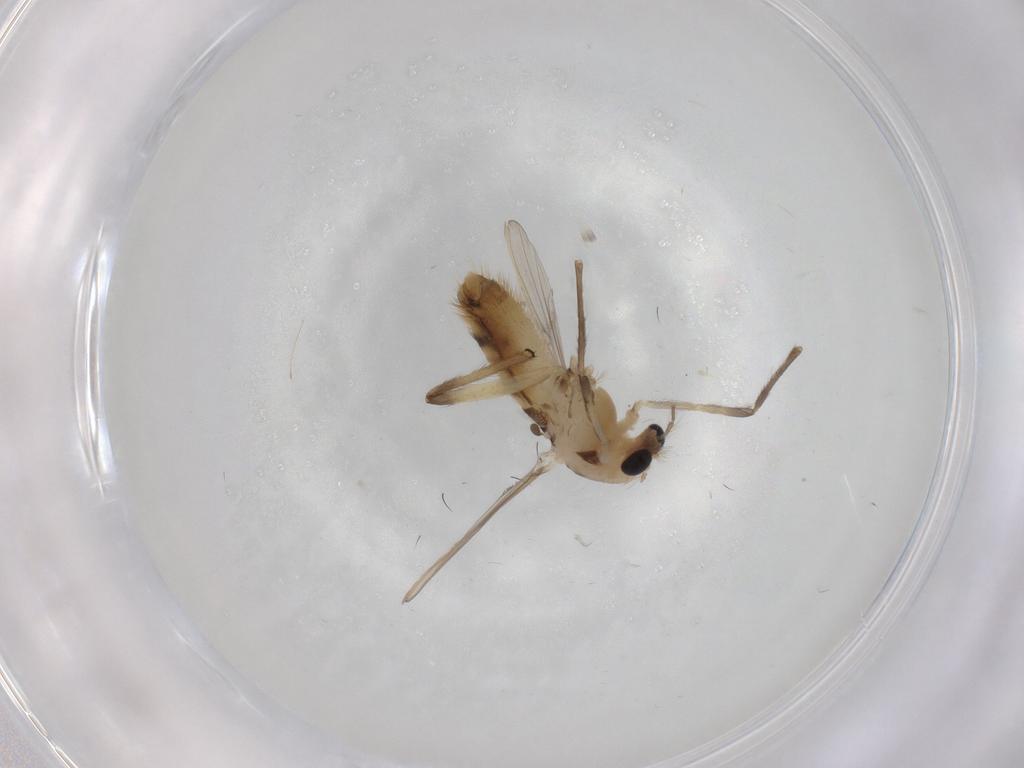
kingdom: Animalia
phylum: Arthropoda
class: Insecta
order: Diptera
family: Chironomidae
